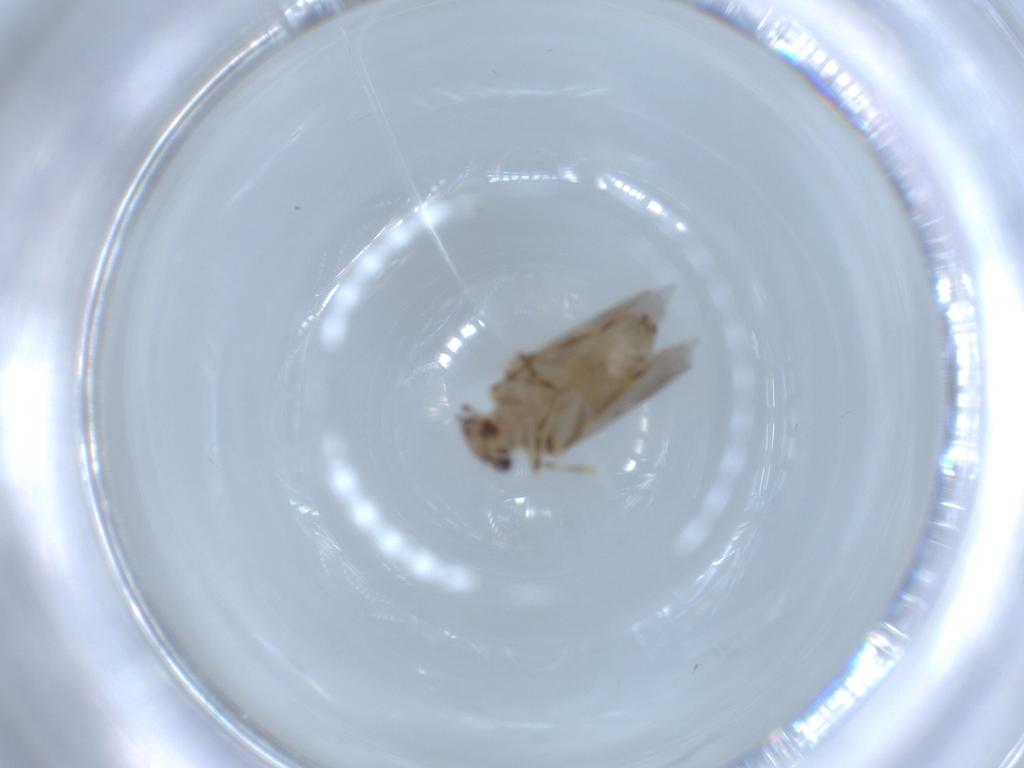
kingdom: Animalia
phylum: Arthropoda
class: Insecta
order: Psocodea
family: Lepidopsocidae
